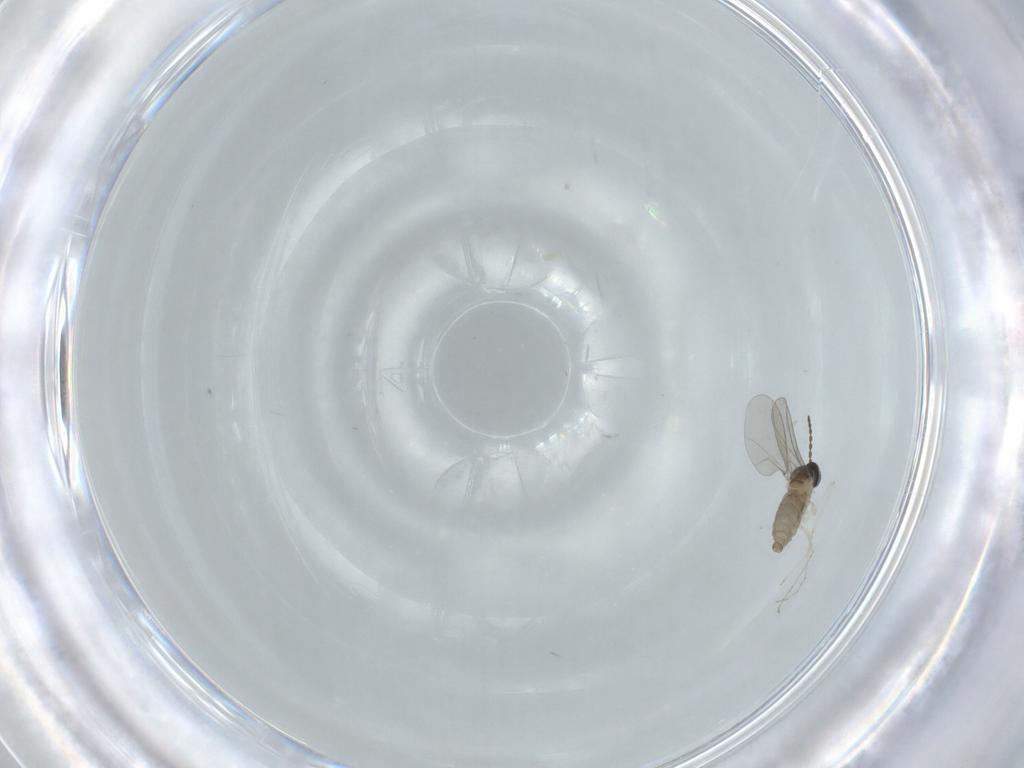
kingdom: Animalia
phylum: Arthropoda
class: Insecta
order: Diptera
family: Cecidomyiidae
